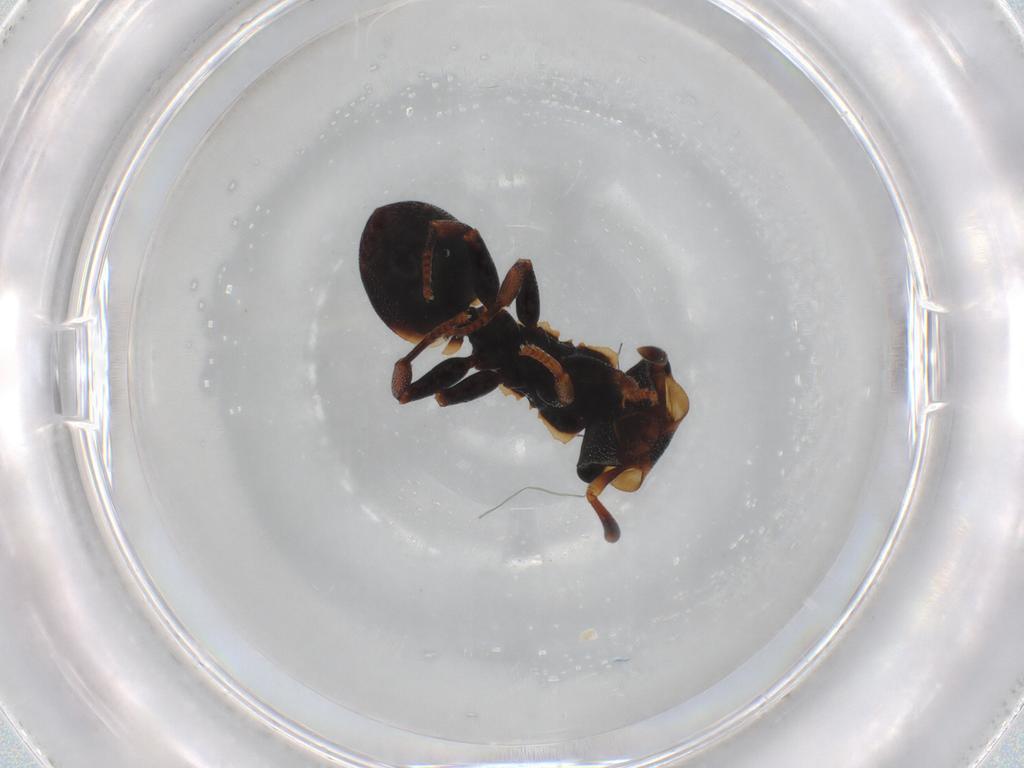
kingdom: Animalia
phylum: Arthropoda
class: Insecta
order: Hymenoptera
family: Formicidae
